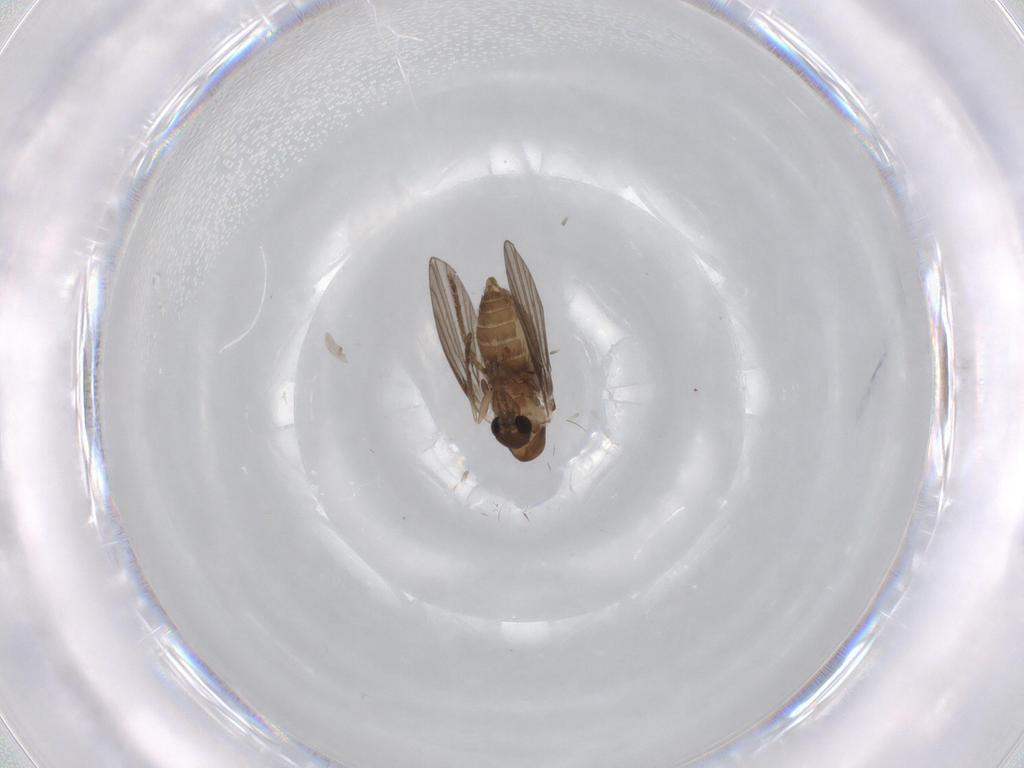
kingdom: Animalia
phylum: Arthropoda
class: Insecta
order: Diptera
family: Psychodidae
